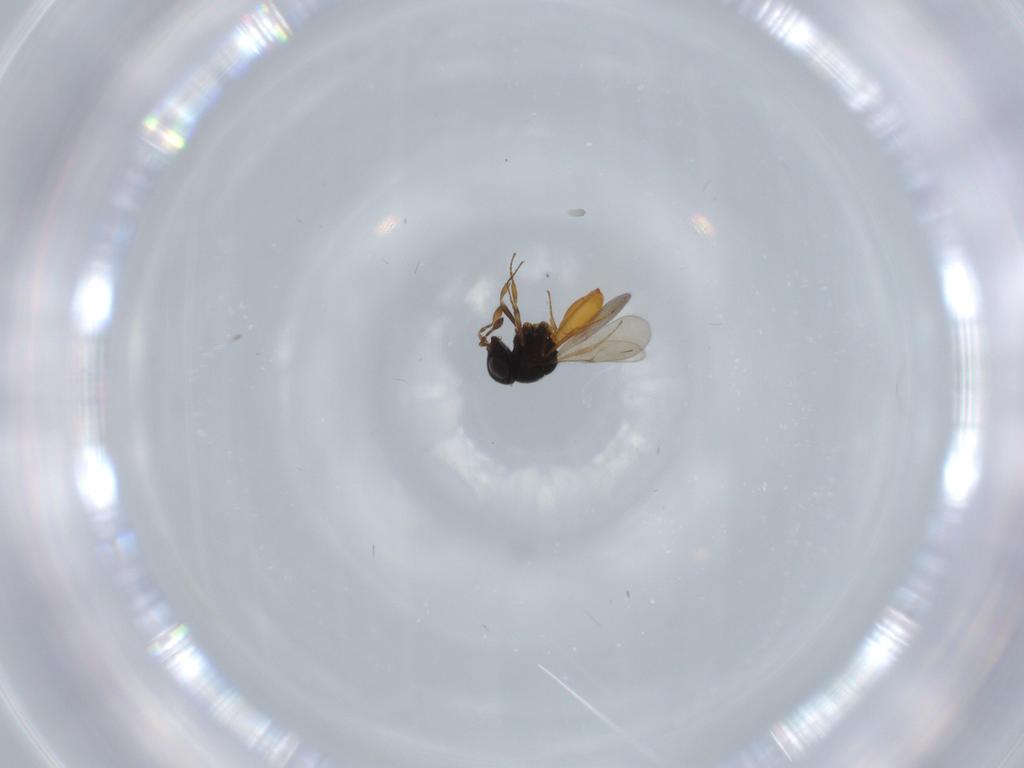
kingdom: Animalia
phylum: Arthropoda
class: Insecta
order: Hymenoptera
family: Scelionidae
